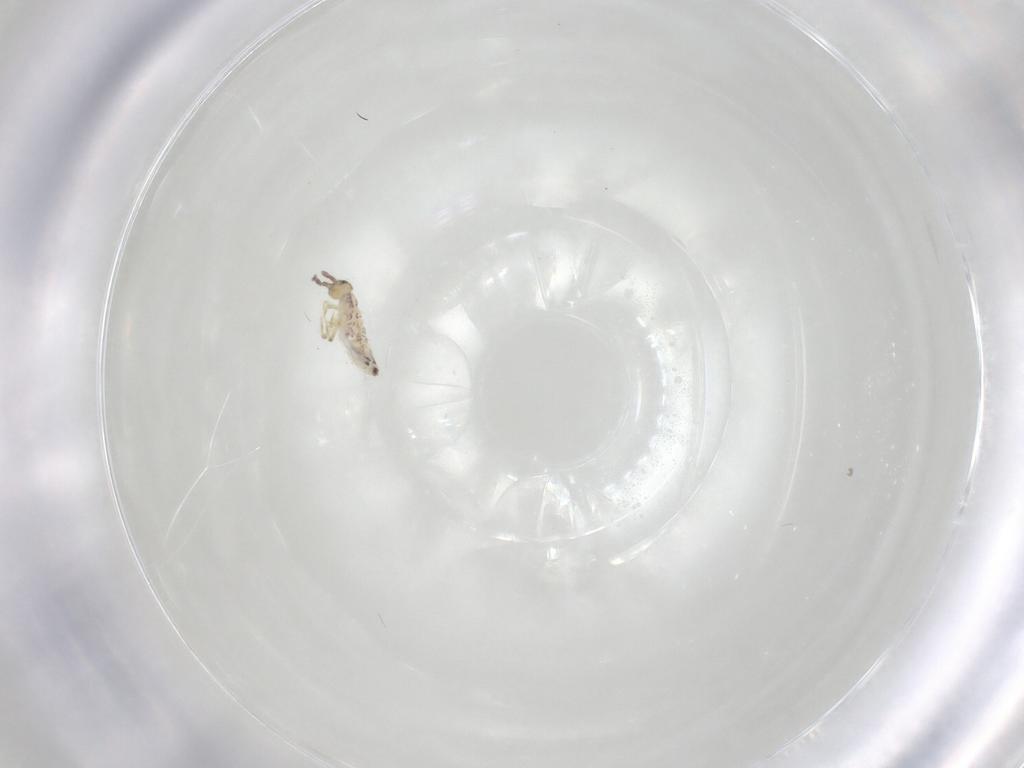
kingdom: Animalia
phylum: Arthropoda
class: Collembola
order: Entomobryomorpha
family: Entomobryidae
